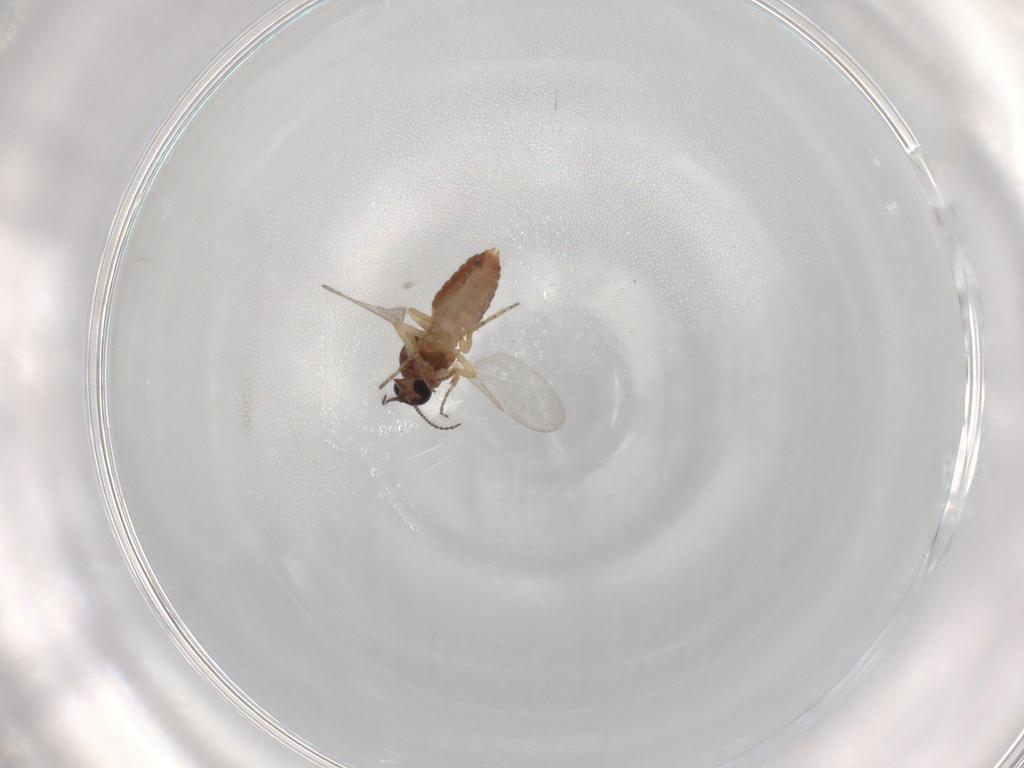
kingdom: Animalia
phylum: Arthropoda
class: Insecta
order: Diptera
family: Ceratopogonidae
